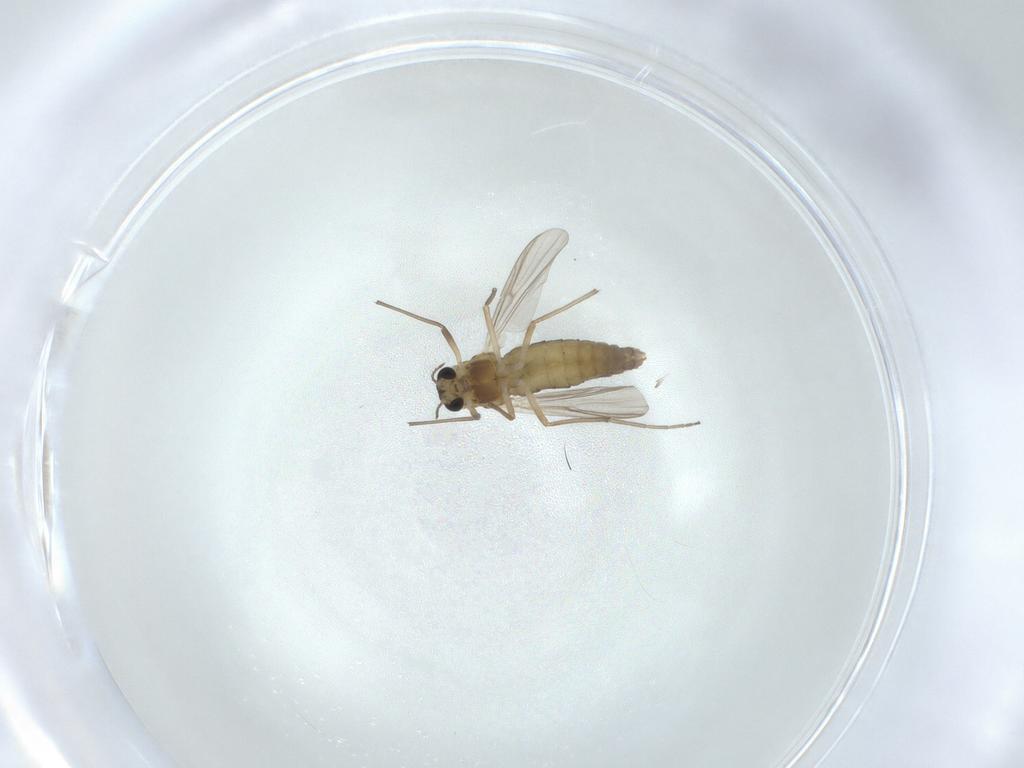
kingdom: Animalia
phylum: Arthropoda
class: Insecta
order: Diptera
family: Chironomidae
